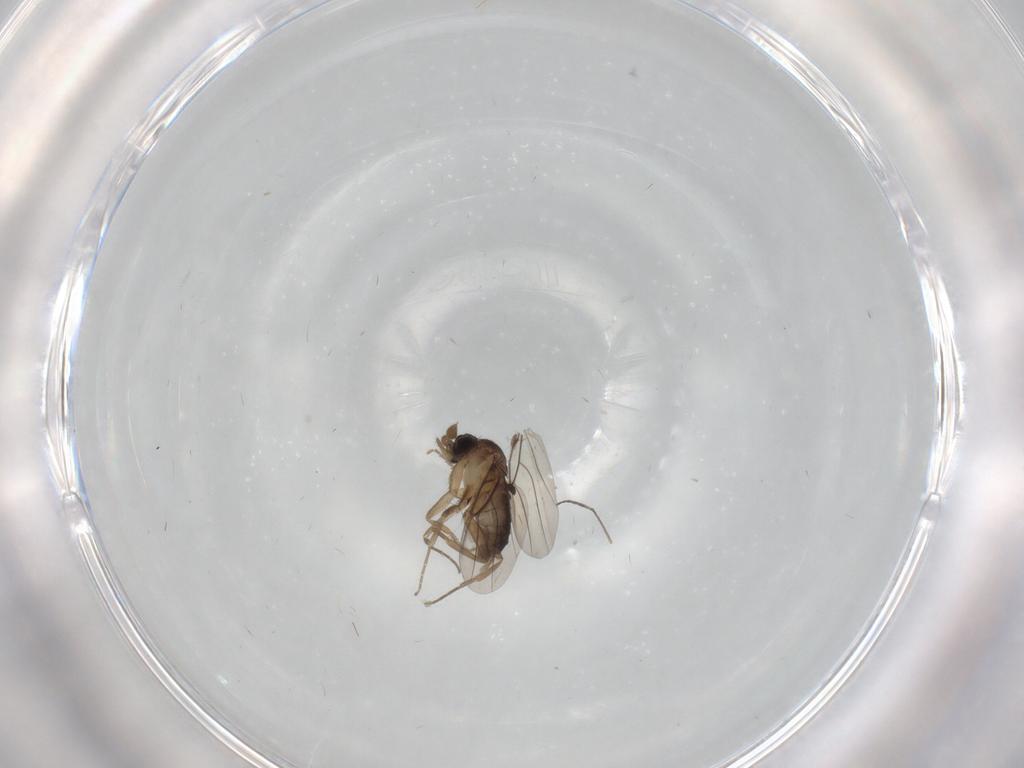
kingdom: Animalia
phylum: Arthropoda
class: Insecta
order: Diptera
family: Phoridae
